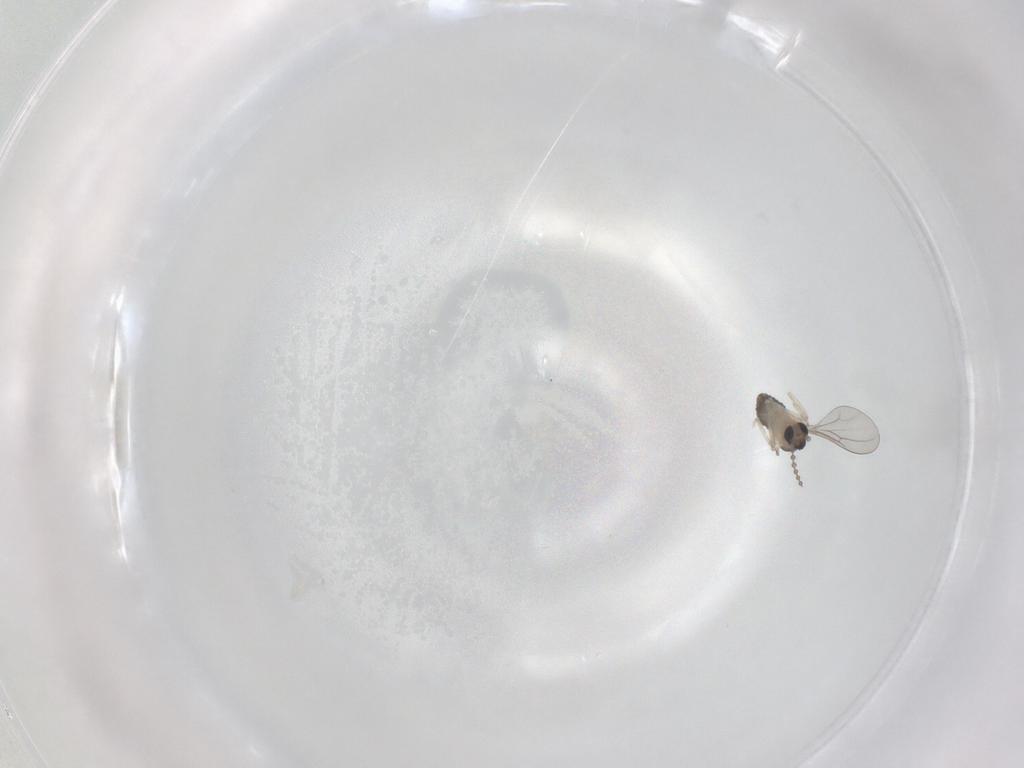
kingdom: Animalia
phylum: Arthropoda
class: Insecta
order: Diptera
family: Cecidomyiidae
